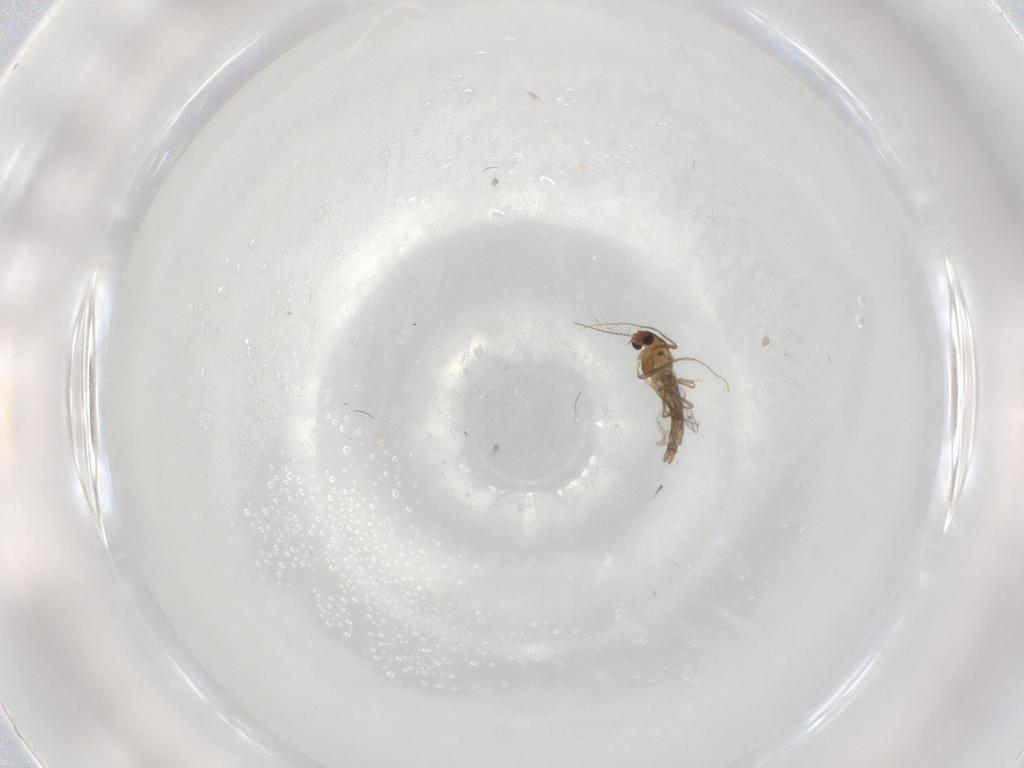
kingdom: Animalia
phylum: Arthropoda
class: Insecta
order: Diptera
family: Chironomidae
